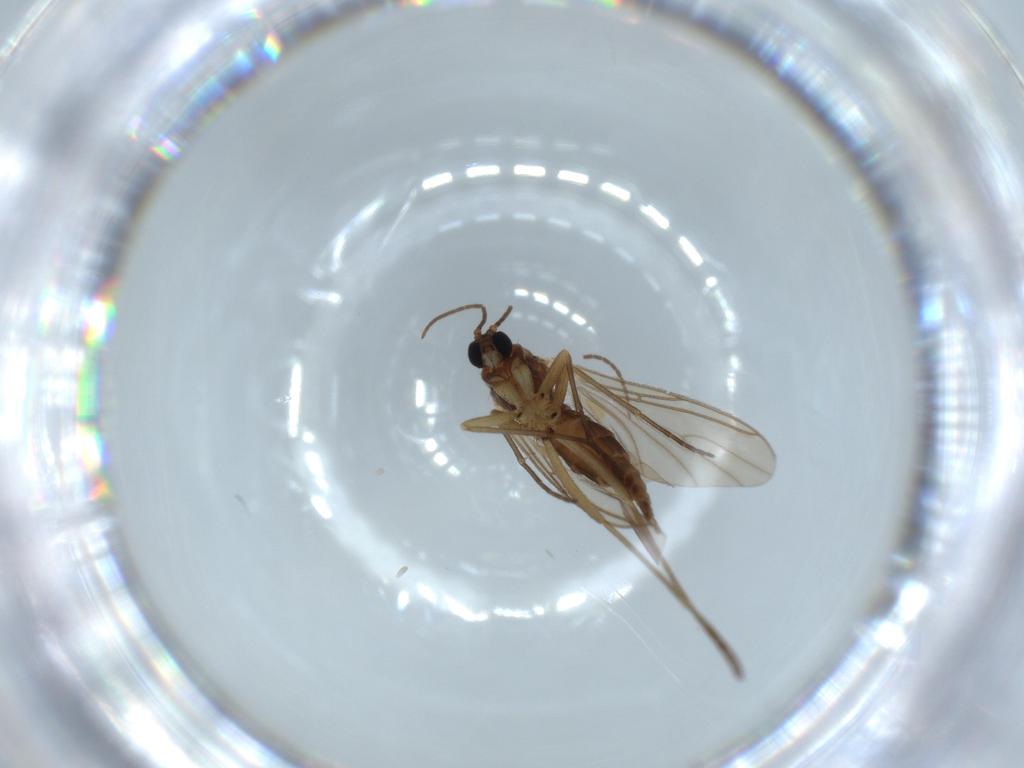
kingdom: Animalia
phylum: Arthropoda
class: Insecta
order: Diptera
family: Sciaridae
